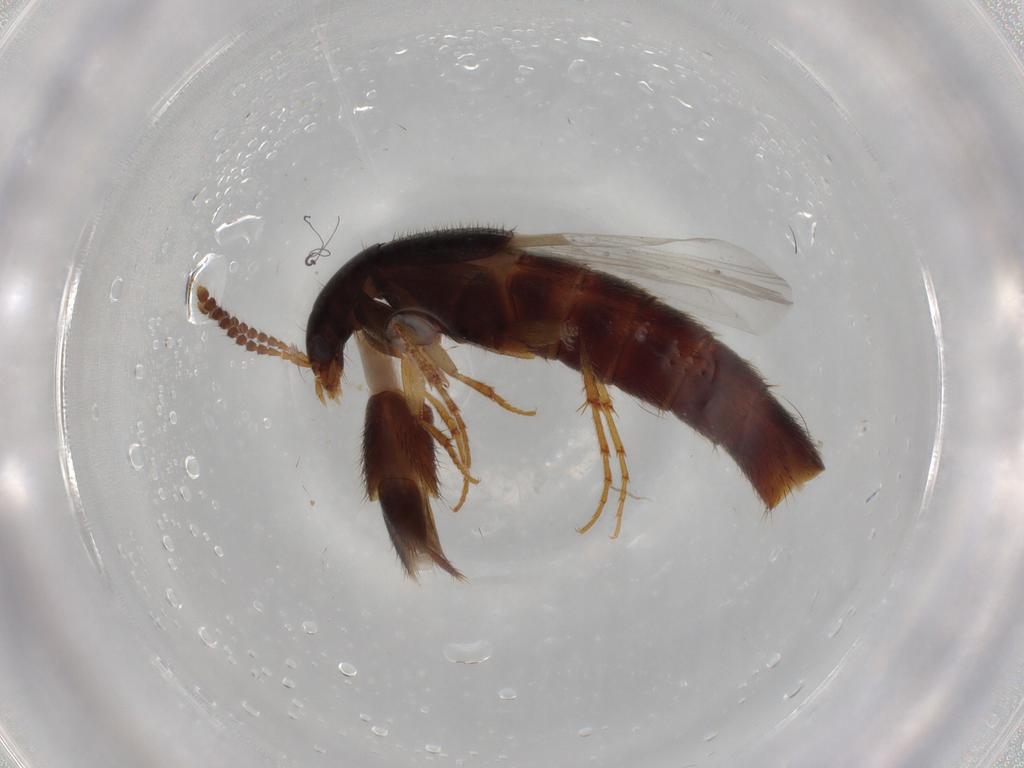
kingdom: Animalia
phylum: Arthropoda
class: Insecta
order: Coleoptera
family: Staphylinidae
